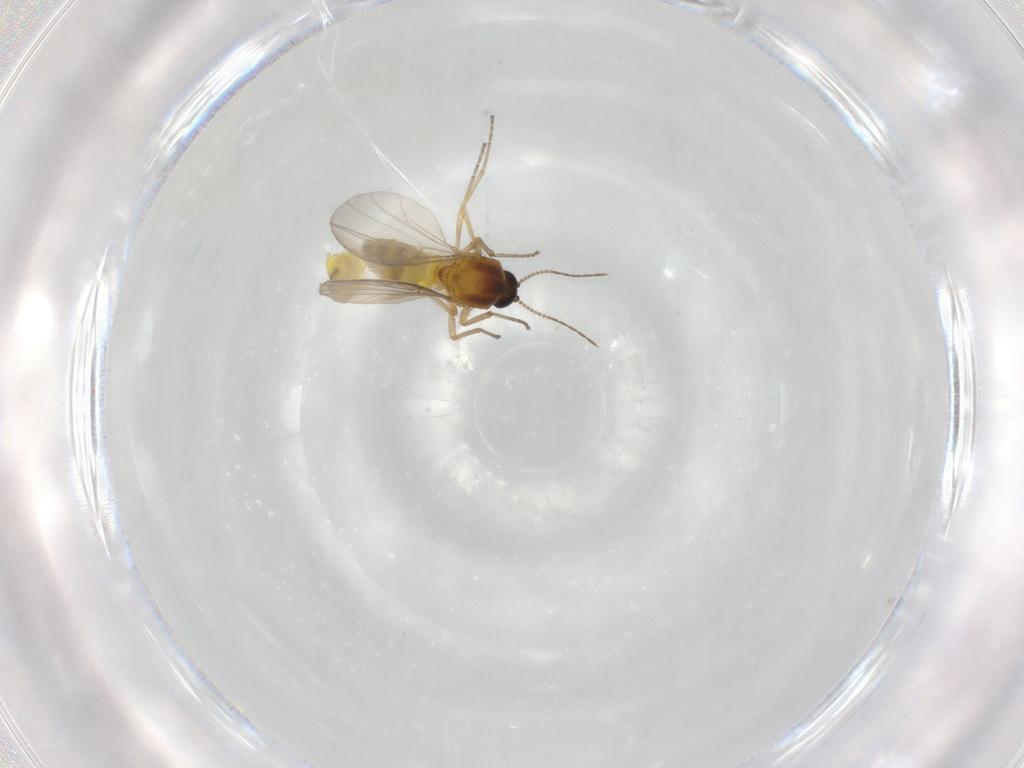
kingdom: Animalia
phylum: Arthropoda
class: Insecta
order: Diptera
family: Ceratopogonidae
